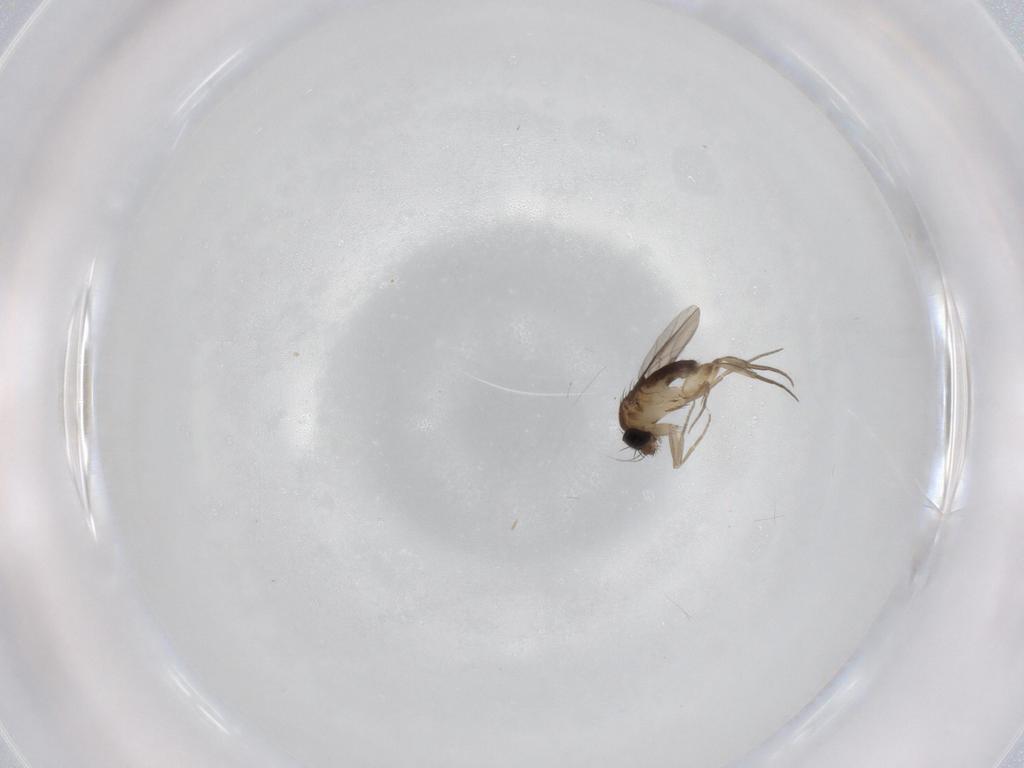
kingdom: Animalia
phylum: Arthropoda
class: Insecta
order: Diptera
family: Phoridae
